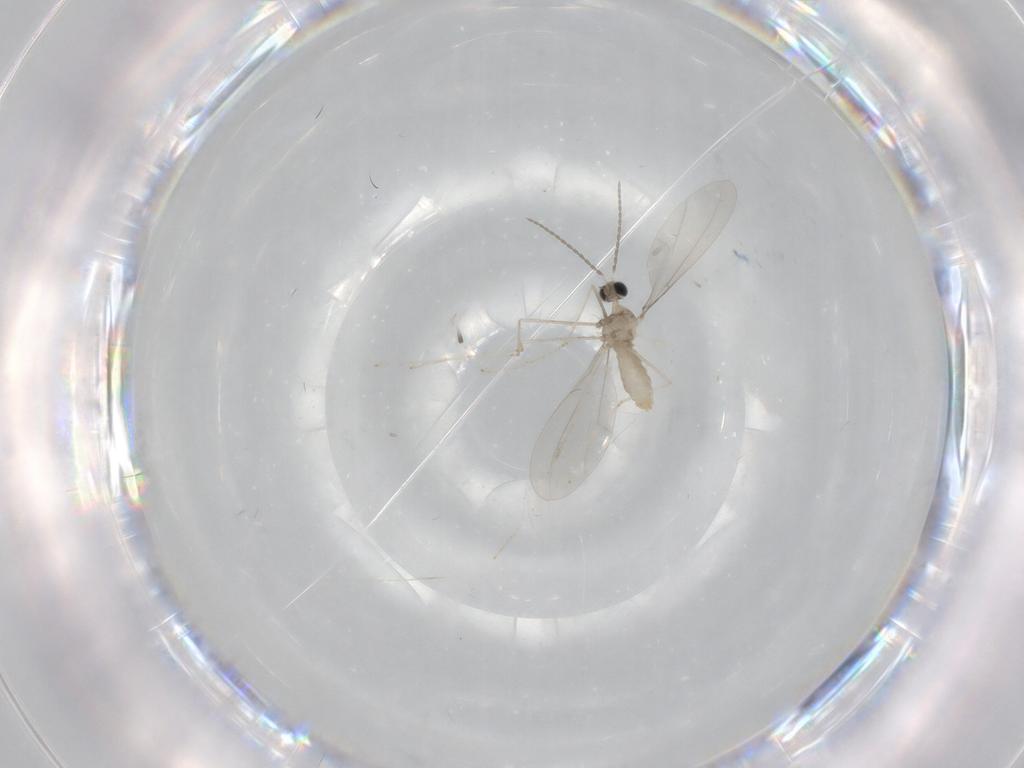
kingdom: Animalia
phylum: Arthropoda
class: Insecta
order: Diptera
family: Cecidomyiidae
